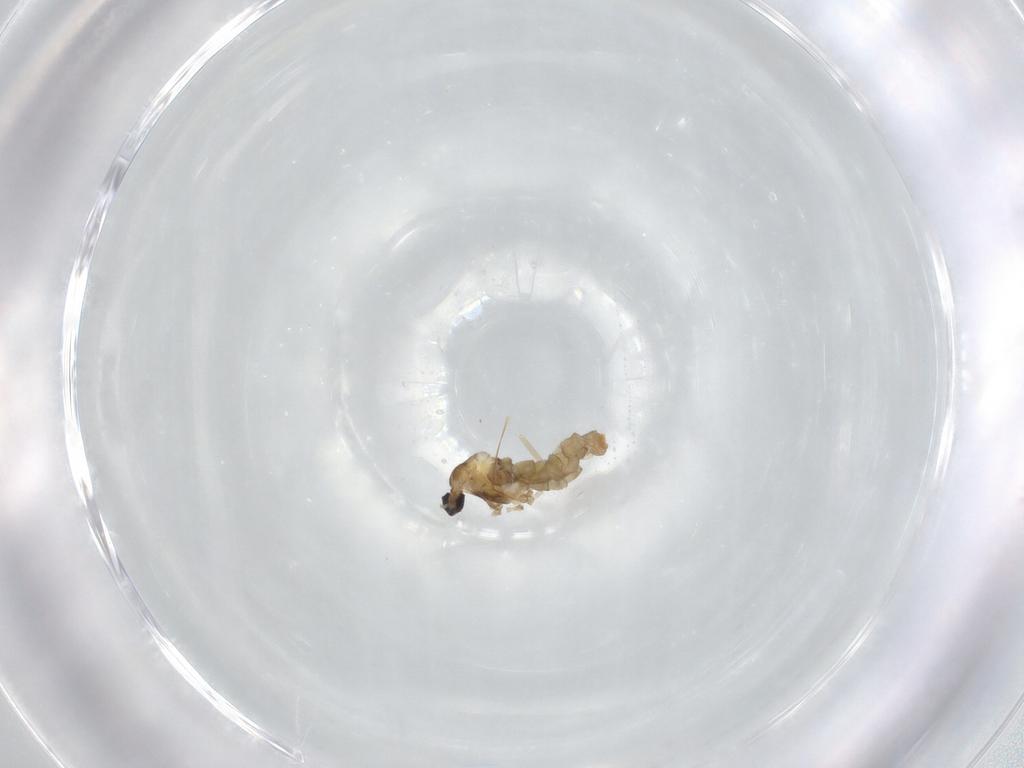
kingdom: Animalia
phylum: Arthropoda
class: Insecta
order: Diptera
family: Cecidomyiidae
